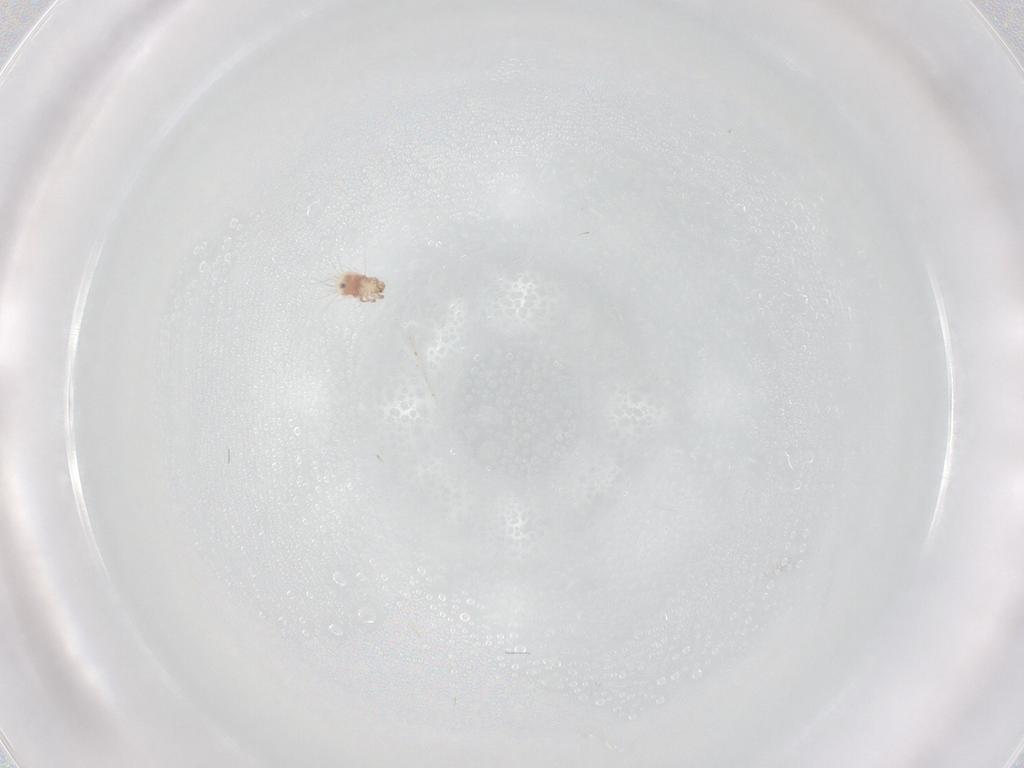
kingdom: Animalia
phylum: Arthropoda
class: Arachnida
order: Sarcoptiformes
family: Oribatulidae
